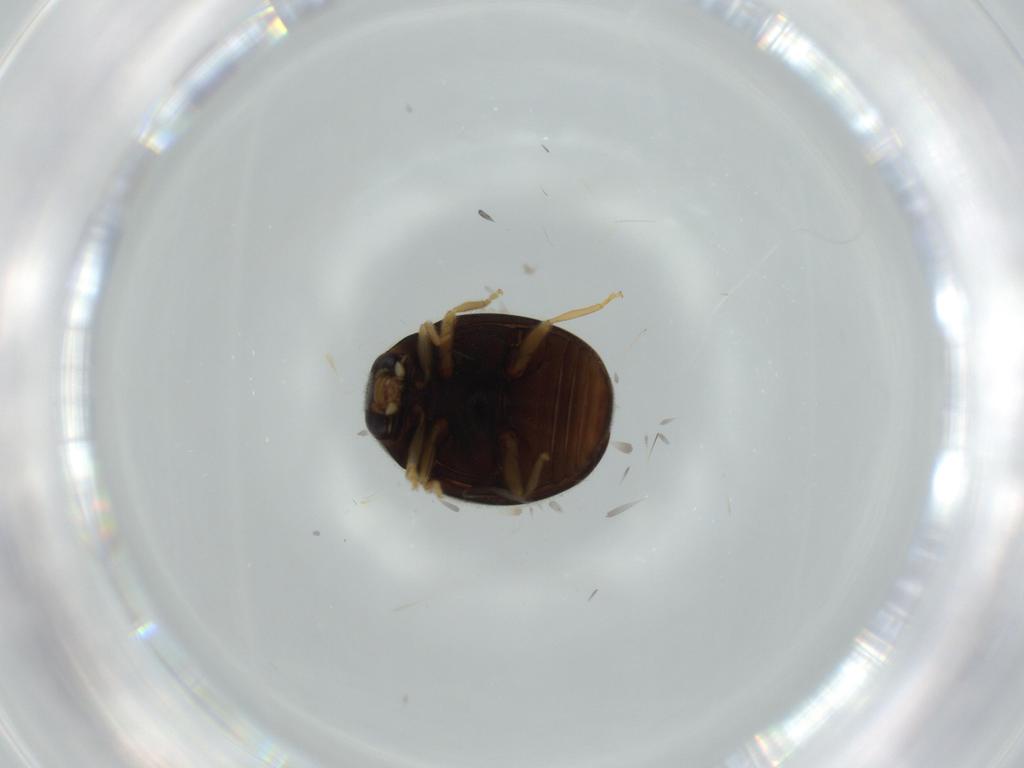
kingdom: Animalia
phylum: Arthropoda
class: Insecta
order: Coleoptera
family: Coccinellidae
